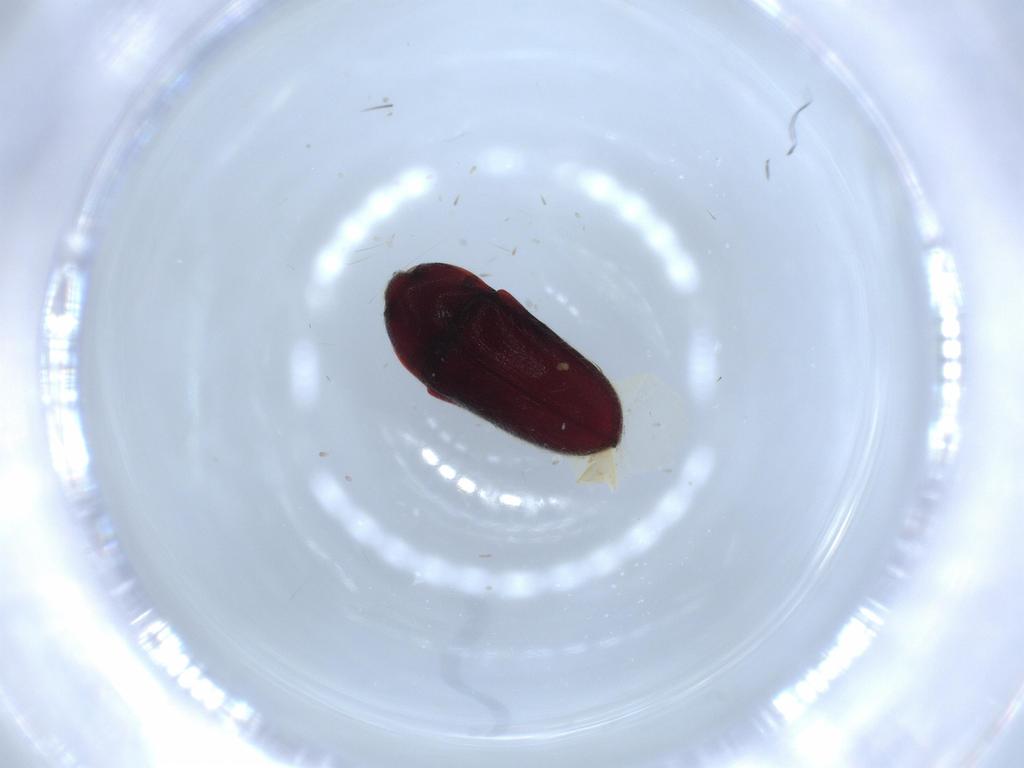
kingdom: Animalia
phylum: Arthropoda
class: Insecta
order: Coleoptera
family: Throscidae
